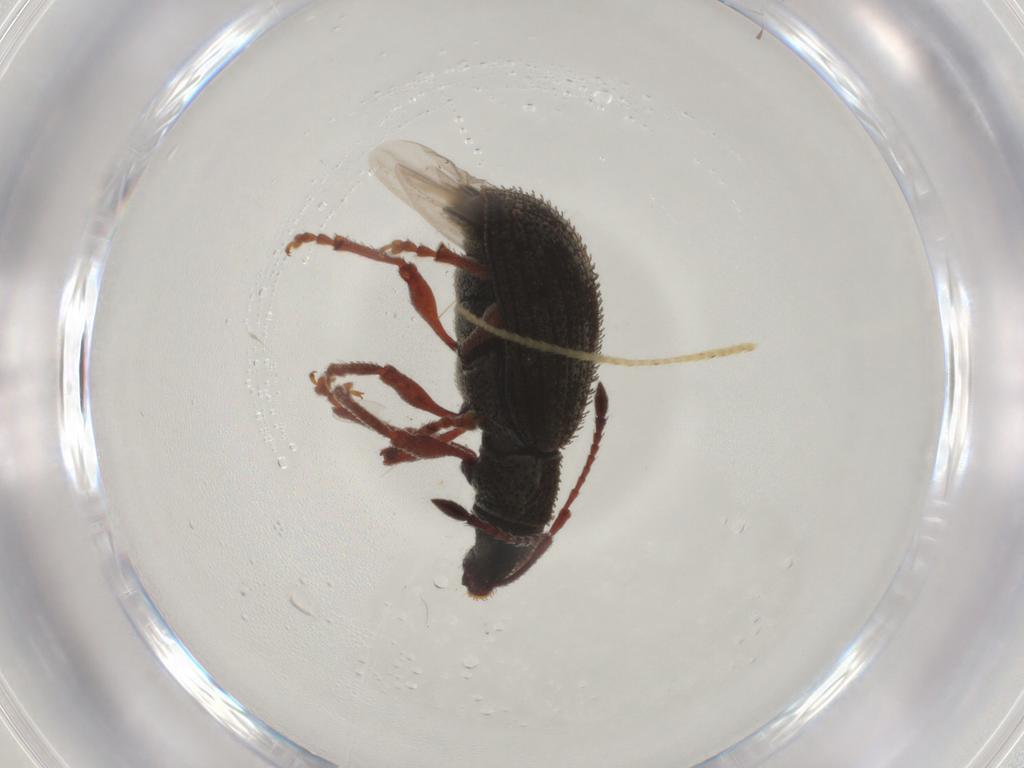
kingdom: Animalia
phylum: Arthropoda
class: Insecta
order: Coleoptera
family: Curculionidae
